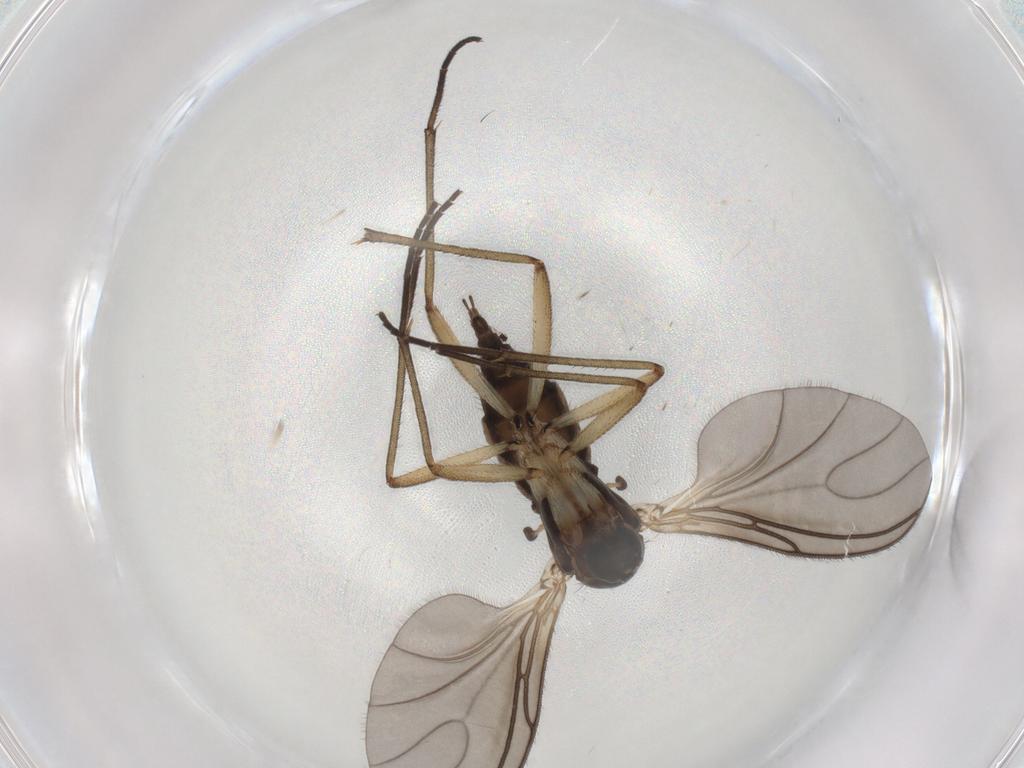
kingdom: Animalia
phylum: Arthropoda
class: Insecta
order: Diptera
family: Sciaridae
